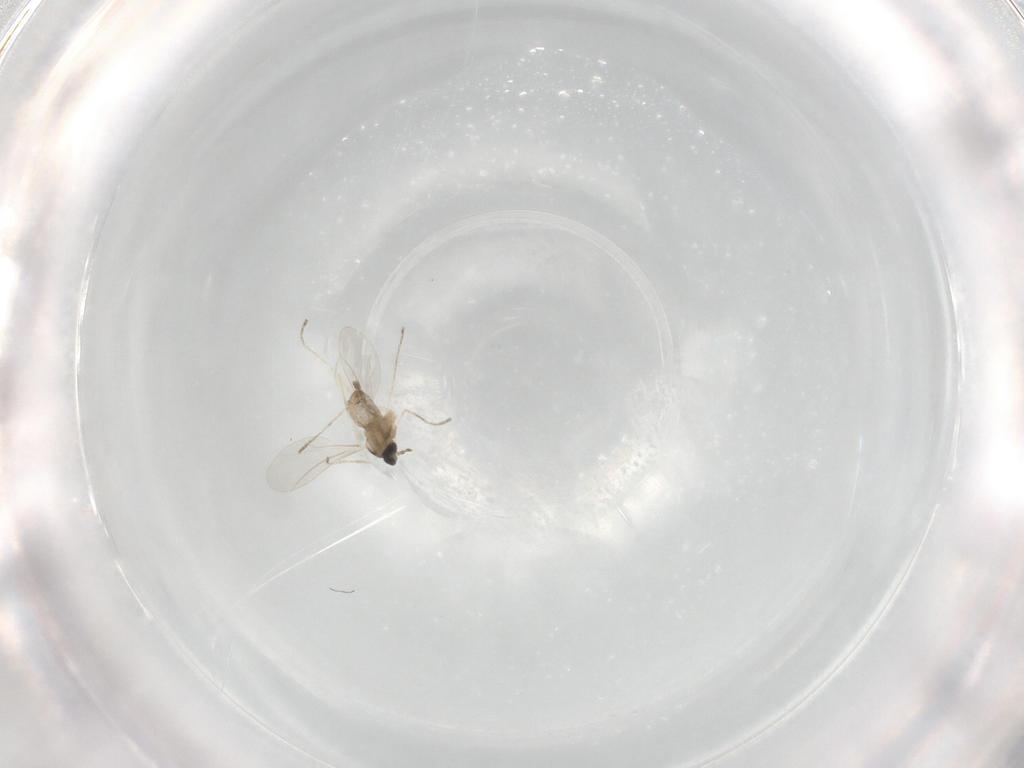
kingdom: Animalia
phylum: Arthropoda
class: Insecta
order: Diptera
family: Cecidomyiidae
